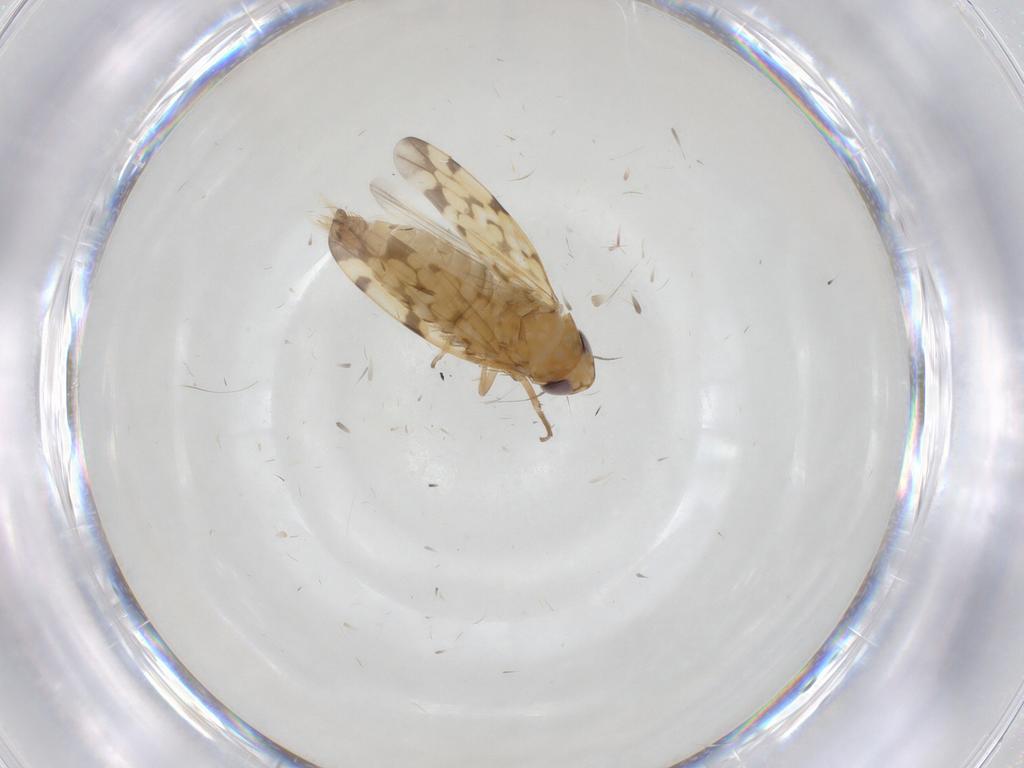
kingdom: Animalia
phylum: Arthropoda
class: Insecta
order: Hemiptera
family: Cicadellidae
